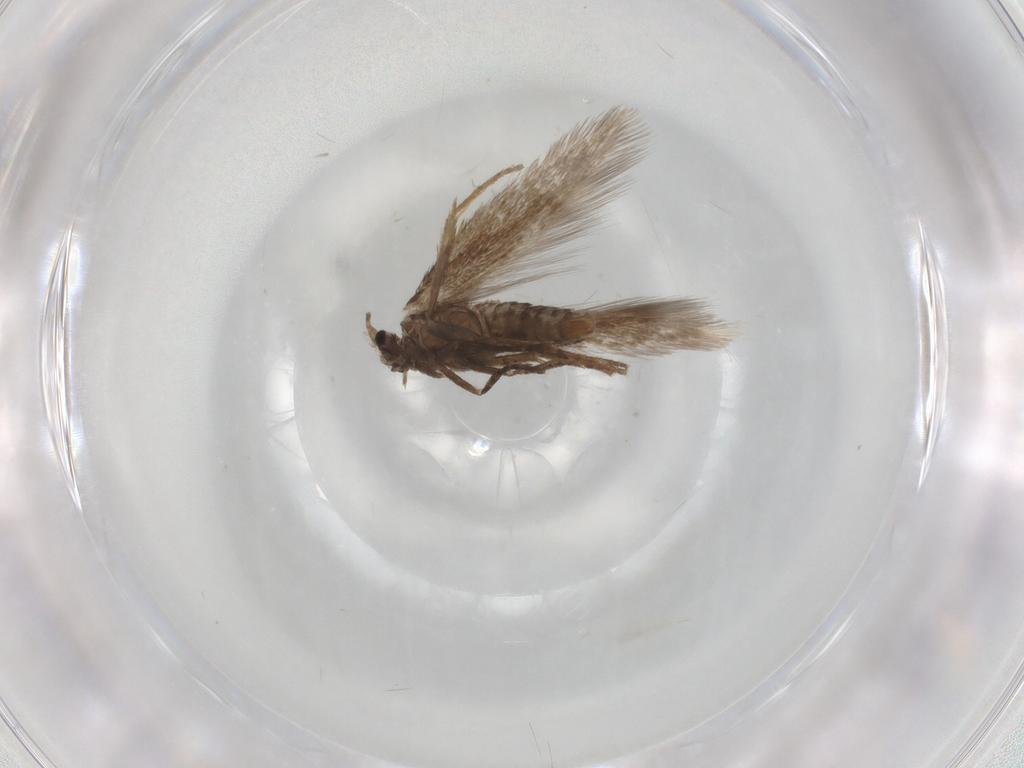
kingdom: Animalia
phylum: Arthropoda
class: Insecta
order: Lepidoptera
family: Nepticulidae
